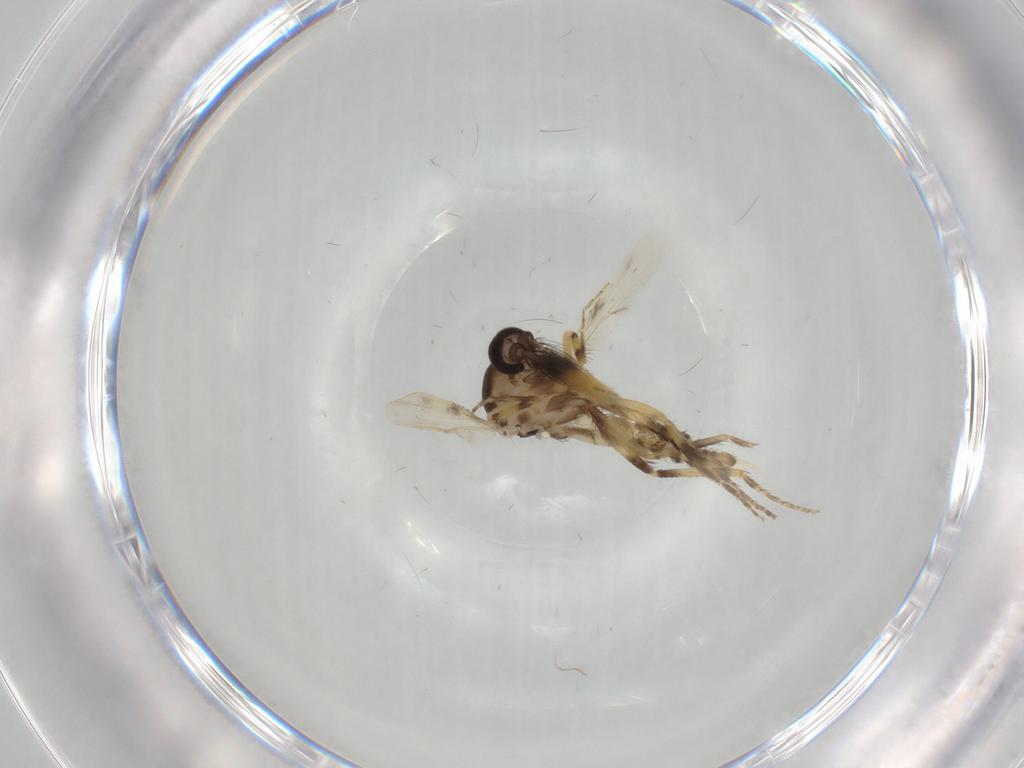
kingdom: Animalia
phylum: Arthropoda
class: Insecta
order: Diptera
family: Ceratopogonidae
